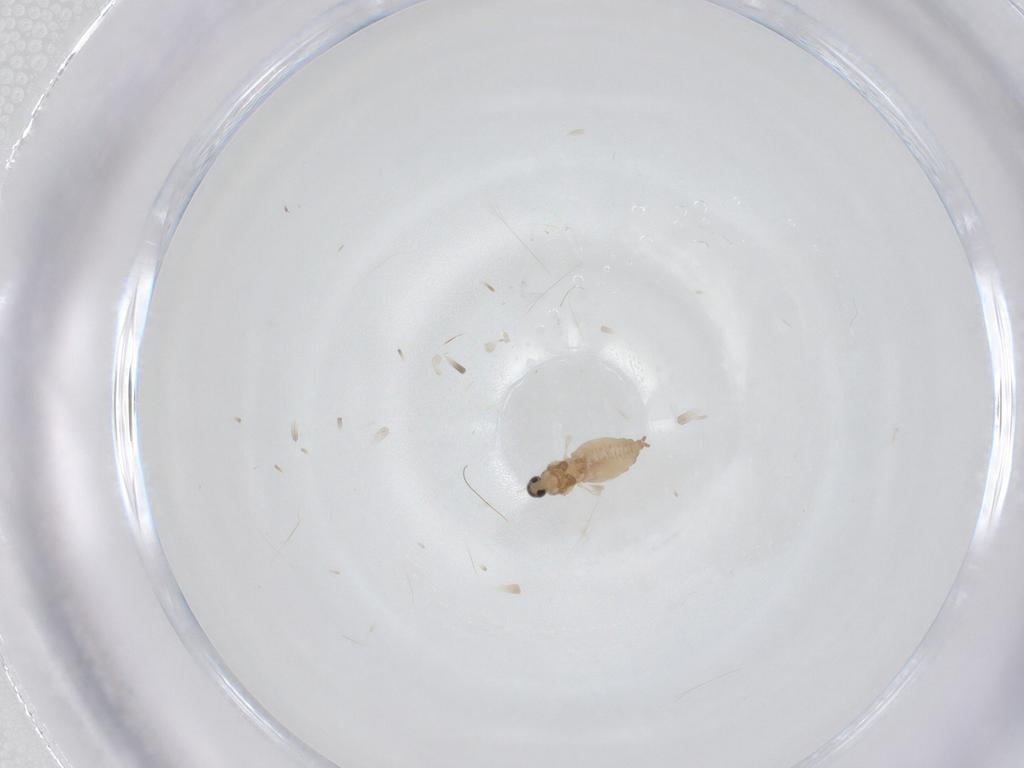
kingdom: Animalia
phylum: Arthropoda
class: Insecta
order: Diptera
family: Cecidomyiidae
